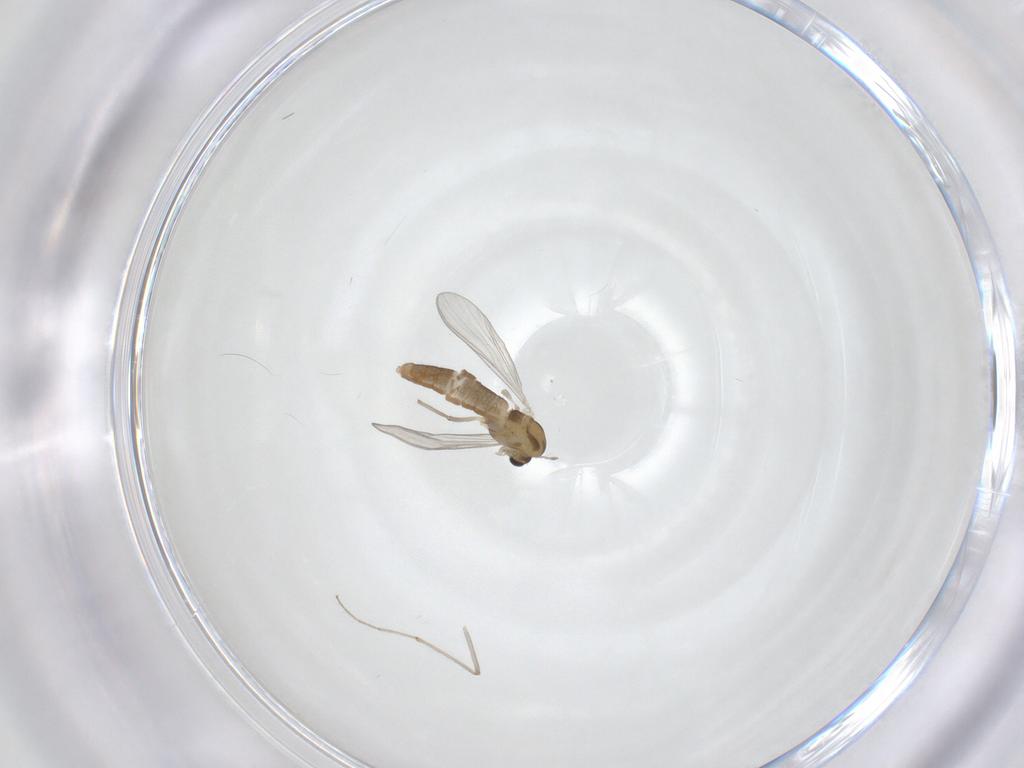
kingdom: Animalia
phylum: Arthropoda
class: Insecta
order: Diptera
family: Chironomidae
